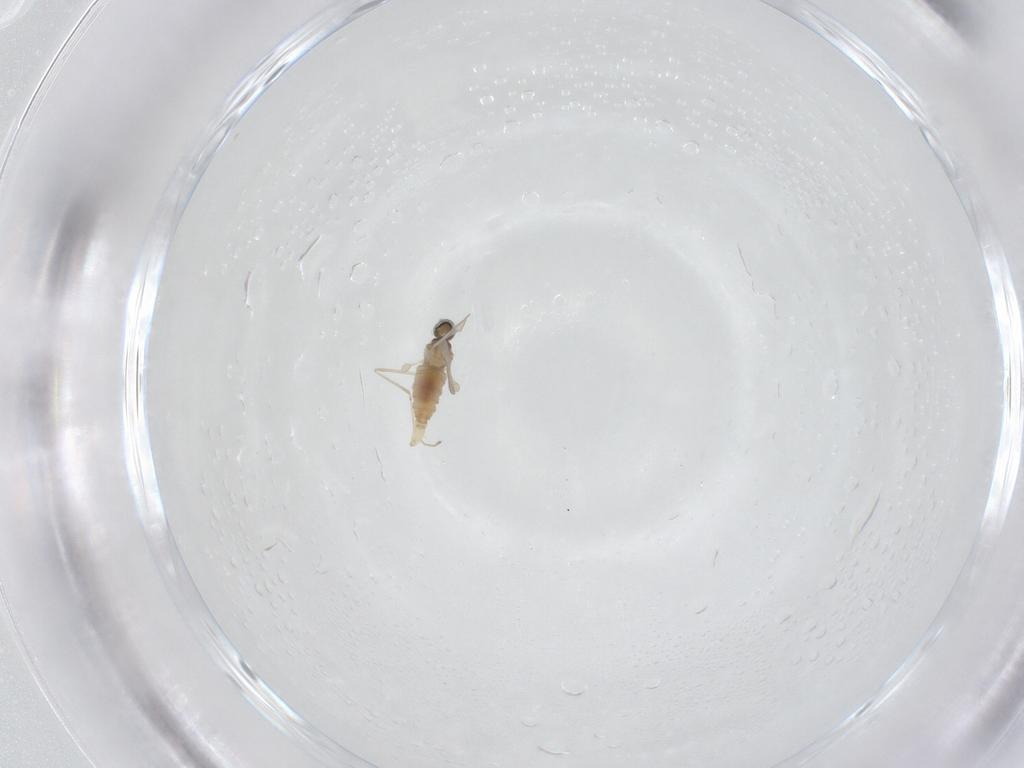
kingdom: Animalia
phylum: Arthropoda
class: Insecta
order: Diptera
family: Cecidomyiidae
